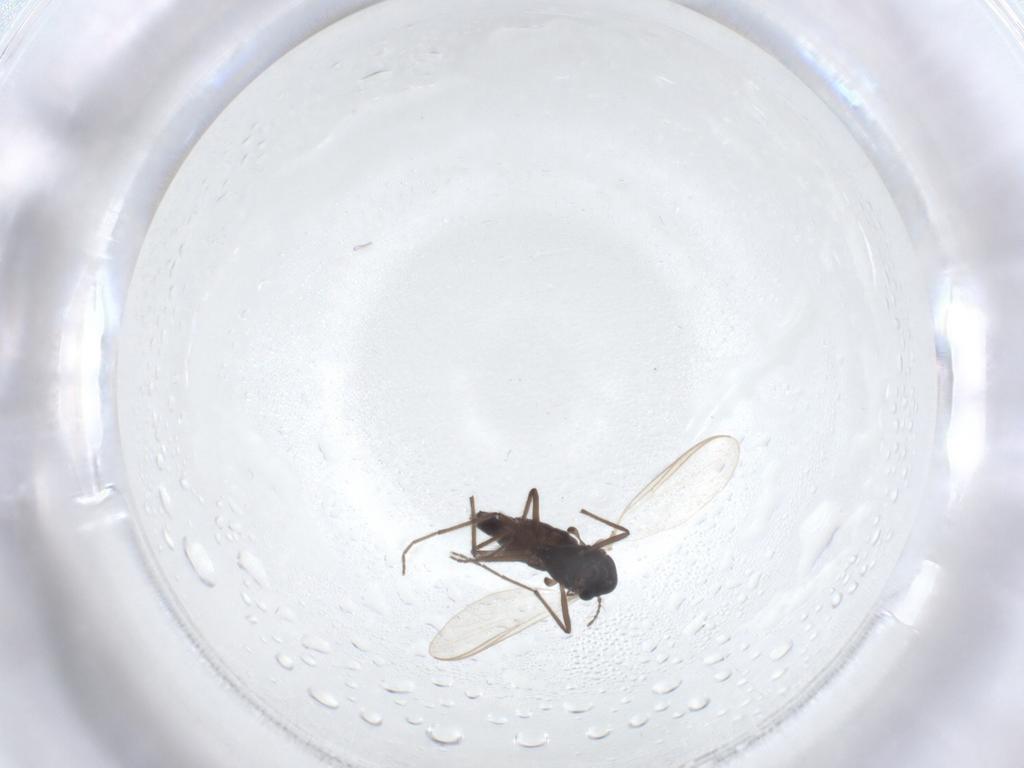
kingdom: Animalia
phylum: Arthropoda
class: Insecta
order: Diptera
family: Chironomidae
